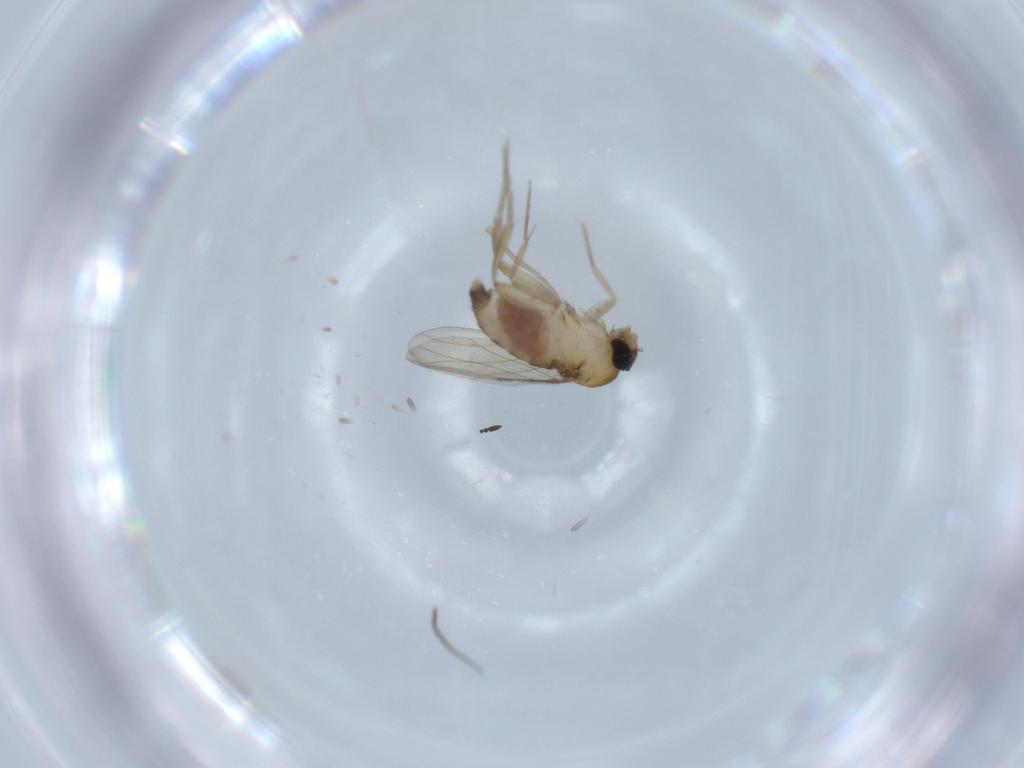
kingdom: Animalia
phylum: Arthropoda
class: Insecta
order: Diptera
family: Phoridae
